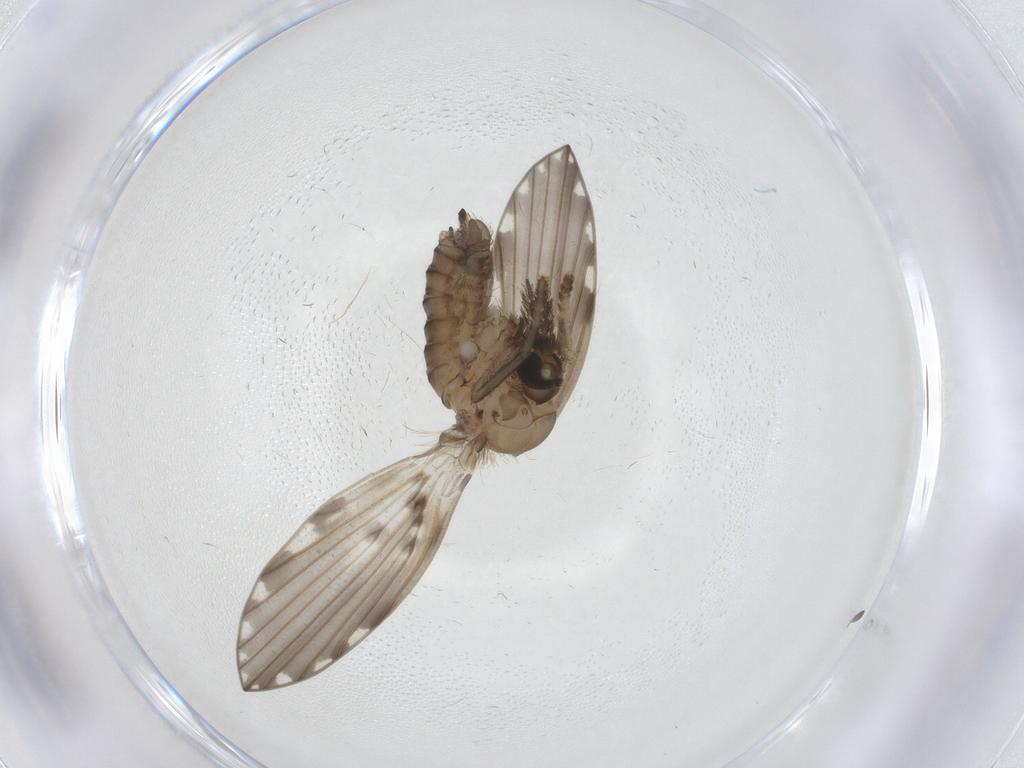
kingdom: Animalia
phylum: Arthropoda
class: Insecta
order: Diptera
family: Psychodidae
